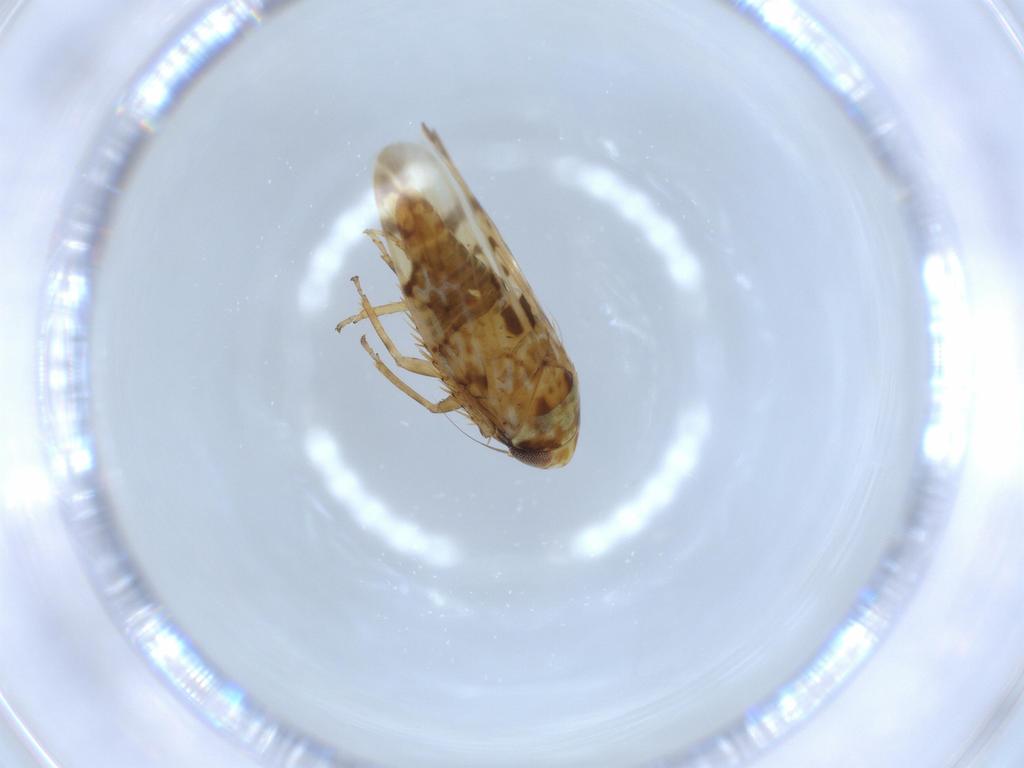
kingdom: Animalia
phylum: Arthropoda
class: Insecta
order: Hemiptera
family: Cicadellidae
